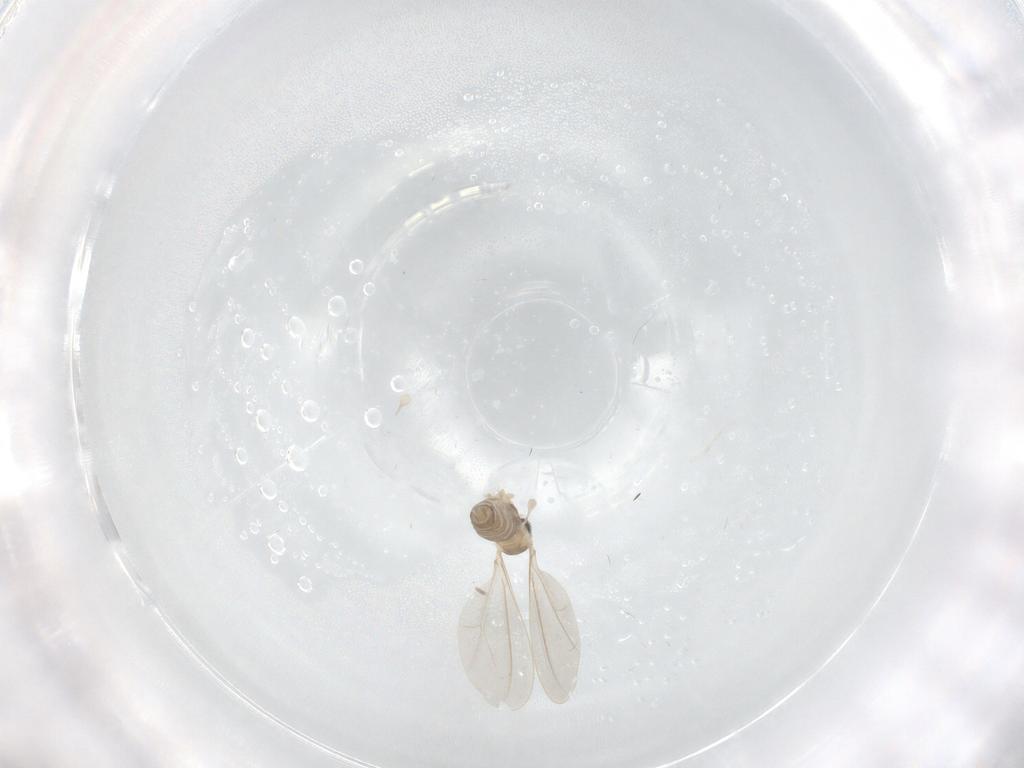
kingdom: Animalia
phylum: Arthropoda
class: Insecta
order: Diptera
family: Cecidomyiidae
